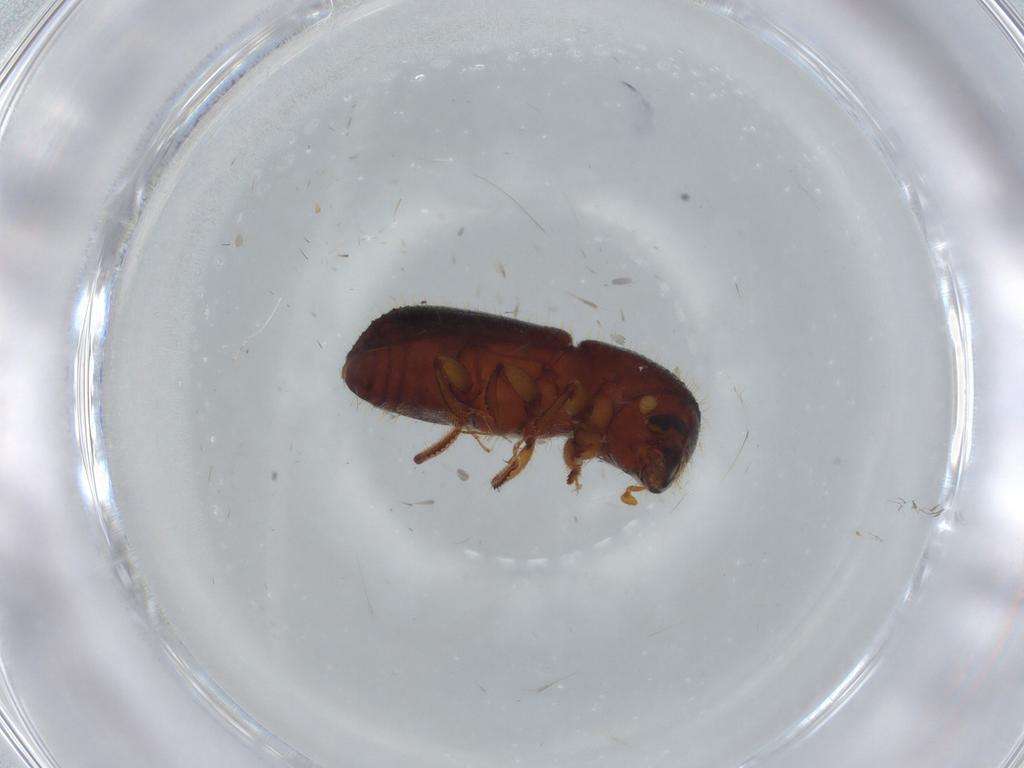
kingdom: Animalia
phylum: Arthropoda
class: Insecta
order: Coleoptera
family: Curculionidae
